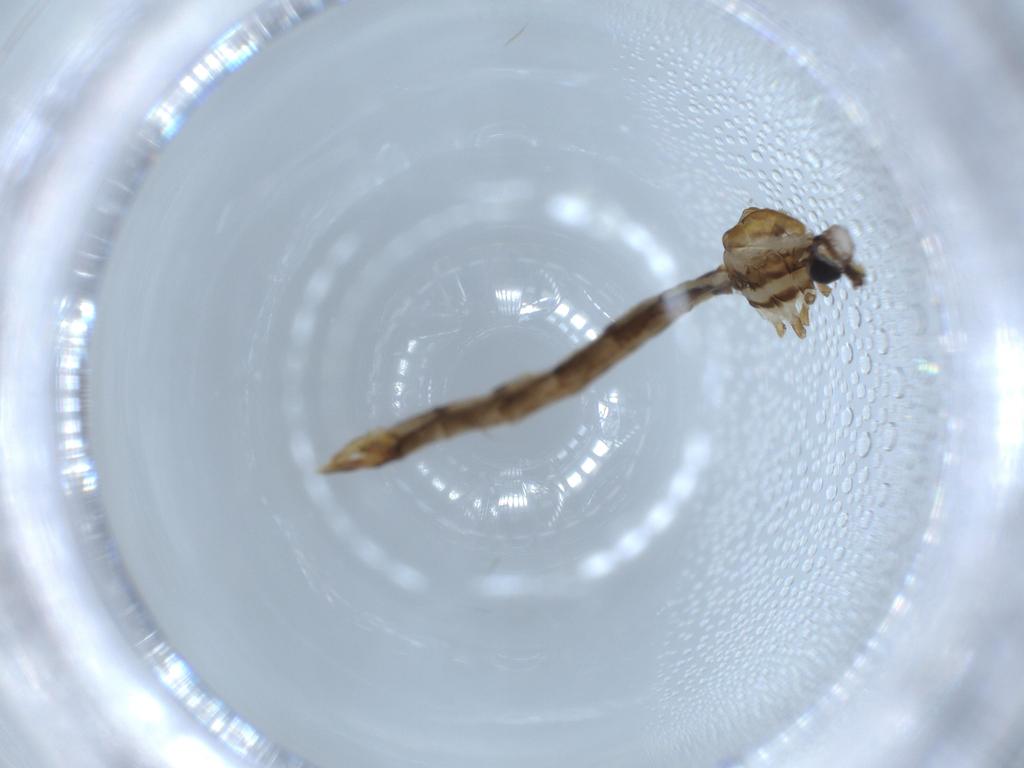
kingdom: Animalia
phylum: Arthropoda
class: Insecta
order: Diptera
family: Limoniidae
